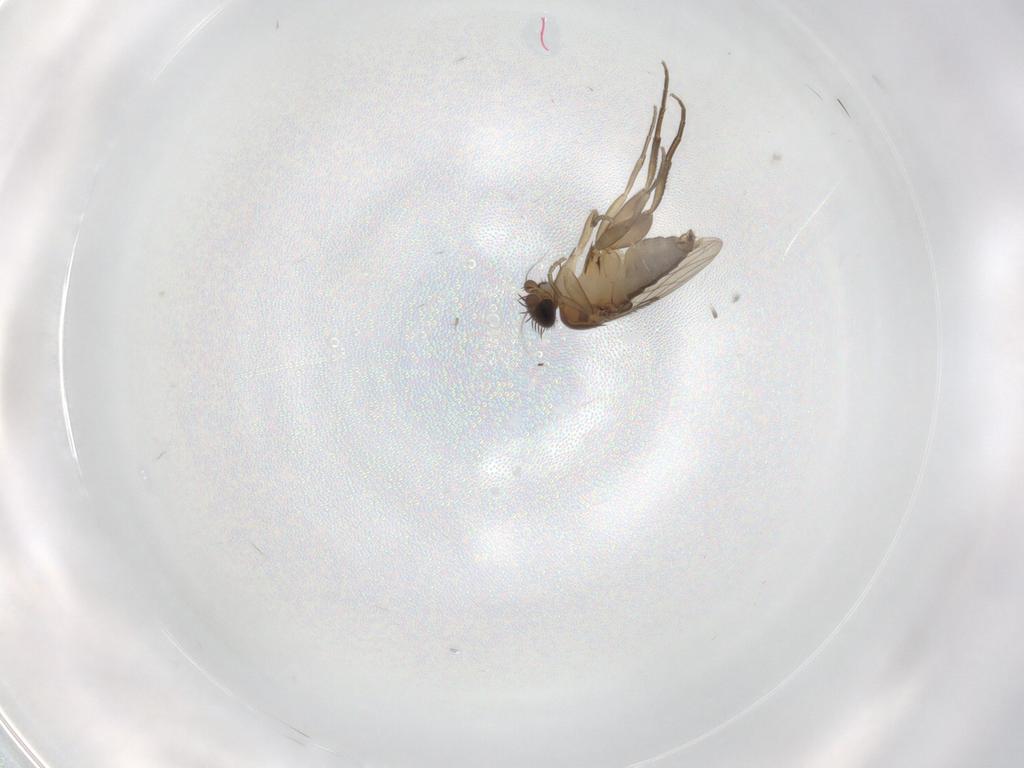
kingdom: Animalia
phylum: Arthropoda
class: Insecta
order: Diptera
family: Phoridae
